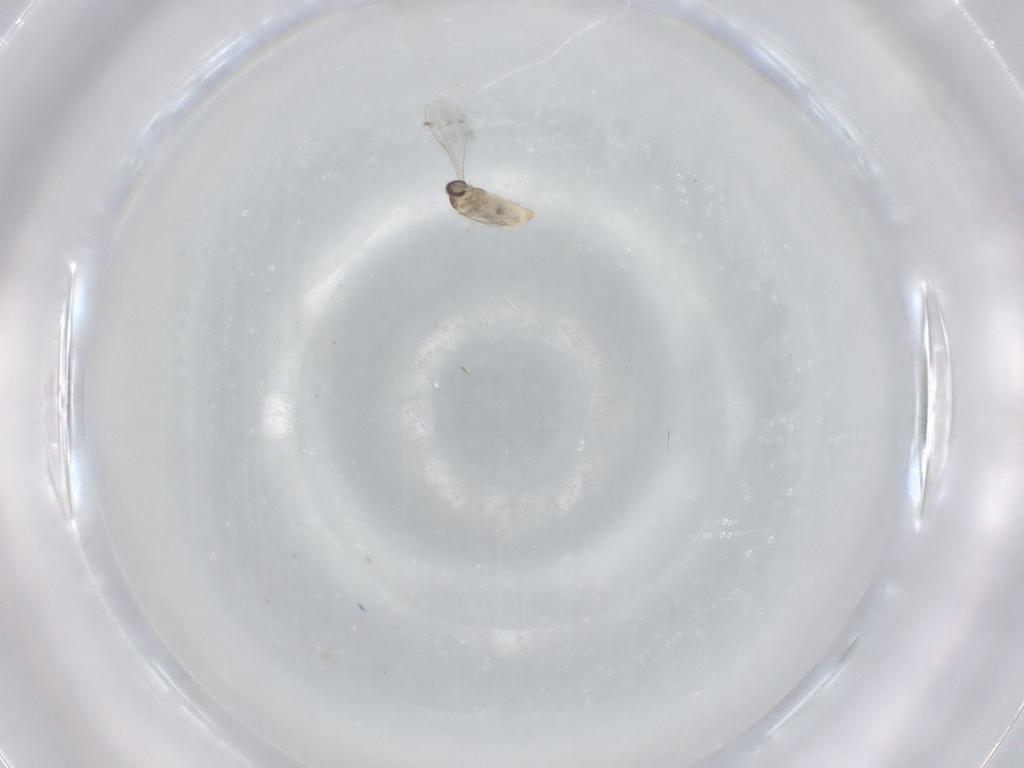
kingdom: Animalia
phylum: Arthropoda
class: Insecta
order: Diptera
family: Cecidomyiidae
